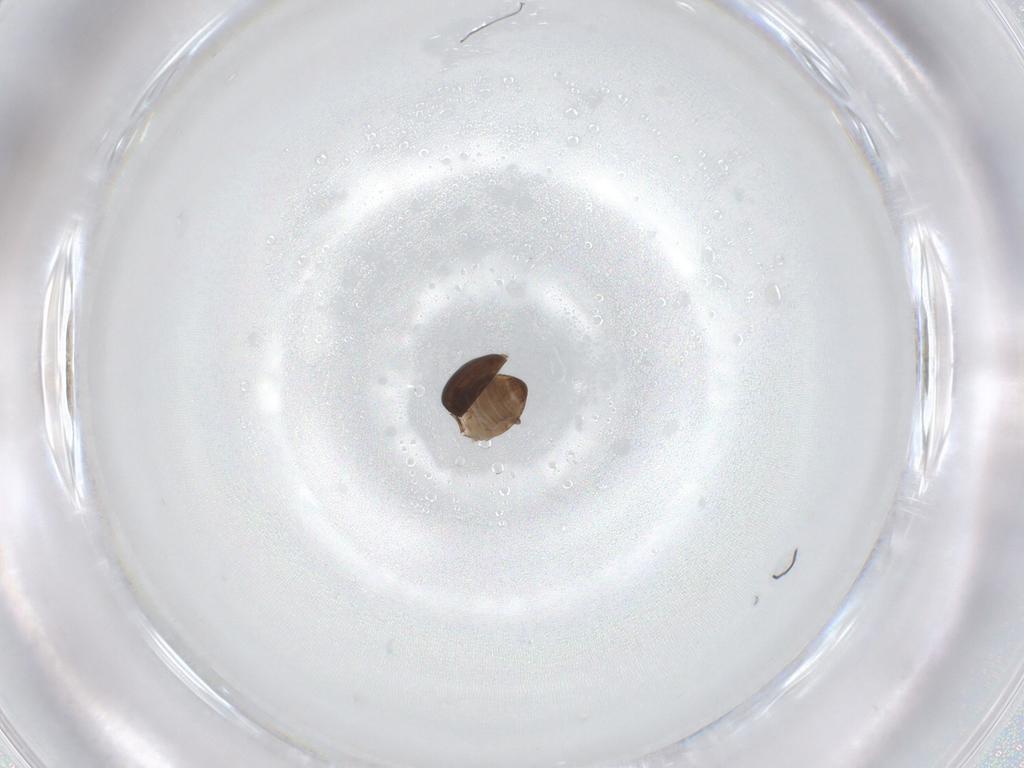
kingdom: Animalia
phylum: Arthropoda
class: Insecta
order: Coleoptera
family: Corylophidae
